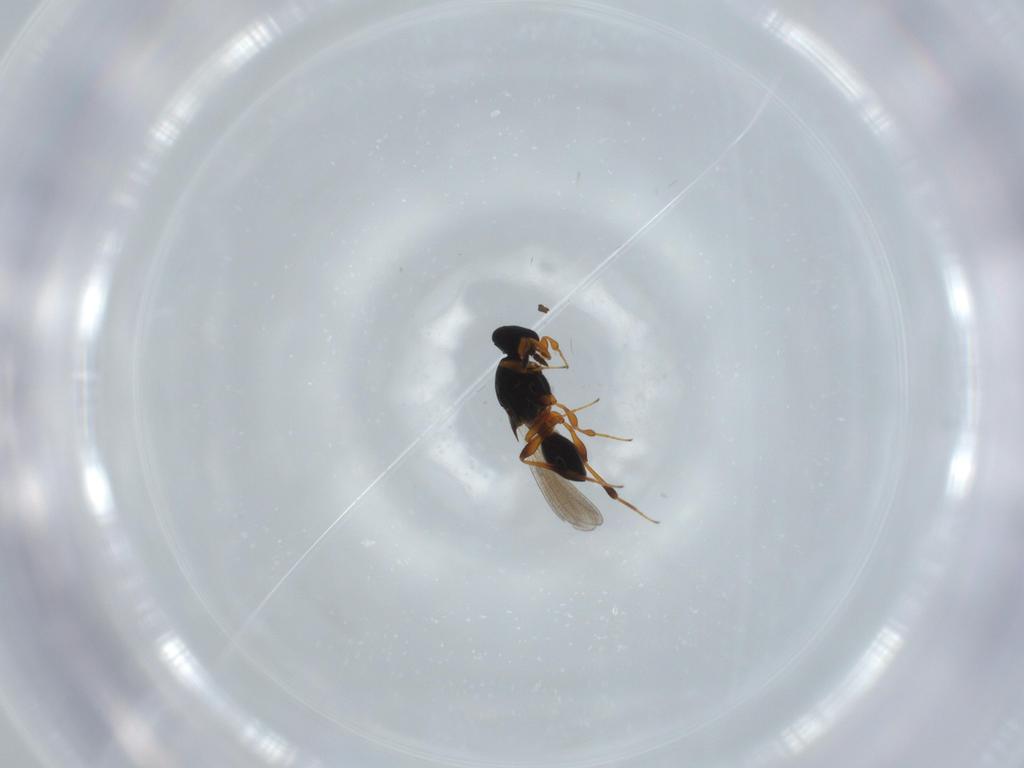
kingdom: Animalia
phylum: Arthropoda
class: Insecta
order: Hymenoptera
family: Platygastridae
